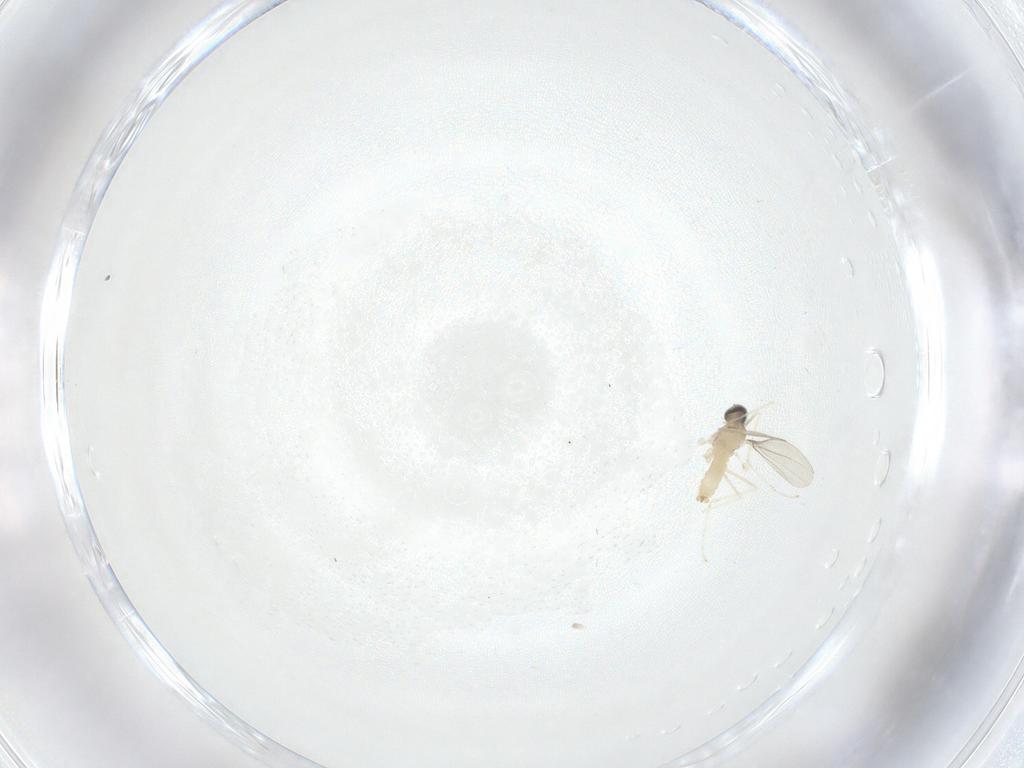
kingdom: Animalia
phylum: Arthropoda
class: Insecta
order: Diptera
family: Cecidomyiidae
